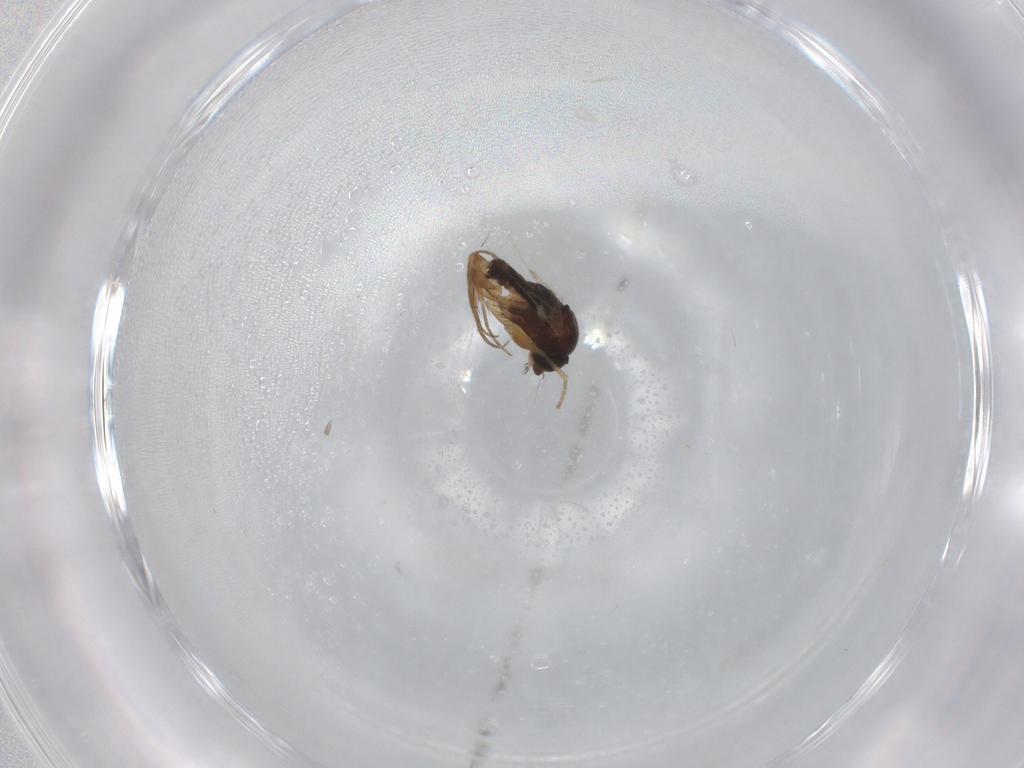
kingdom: Animalia
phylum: Arthropoda
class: Insecta
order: Diptera
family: Phoridae
